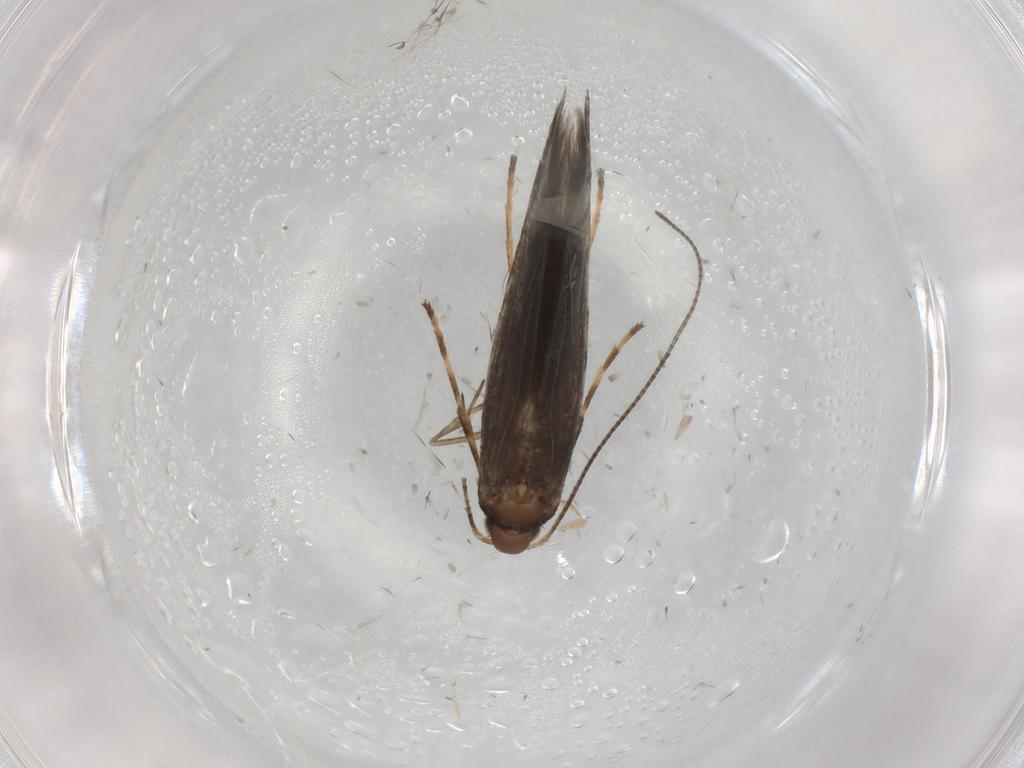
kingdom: Animalia
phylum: Arthropoda
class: Insecta
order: Lepidoptera
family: Gracillariidae
